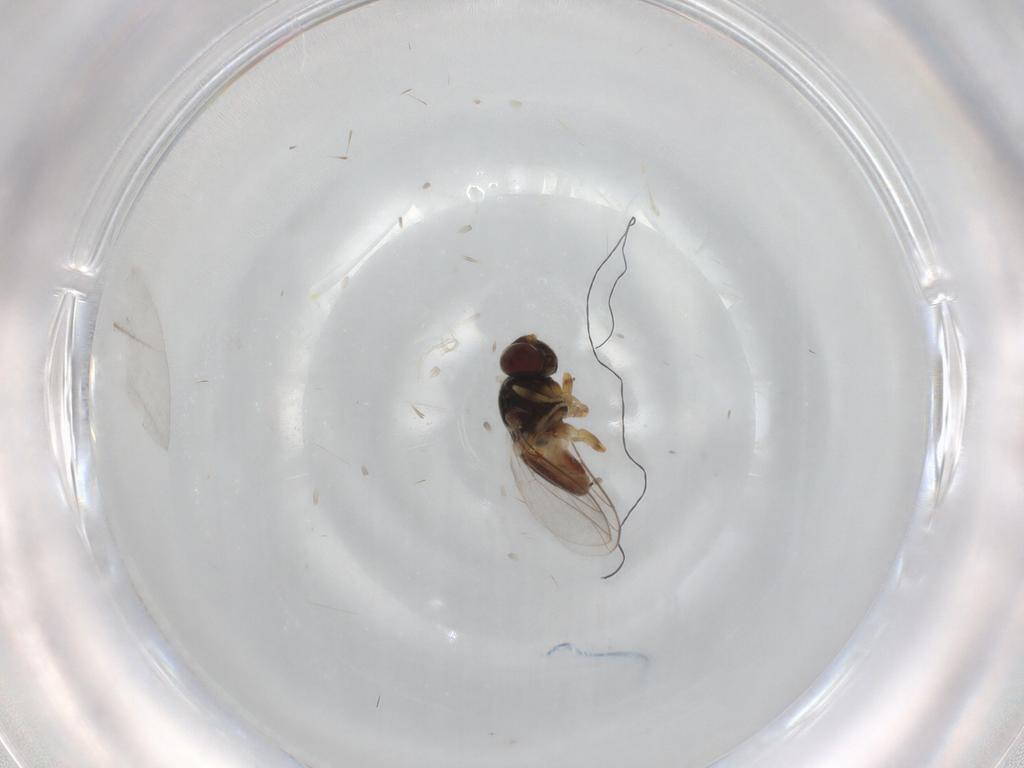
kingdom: Animalia
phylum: Arthropoda
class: Insecta
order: Diptera
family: Chloropidae
